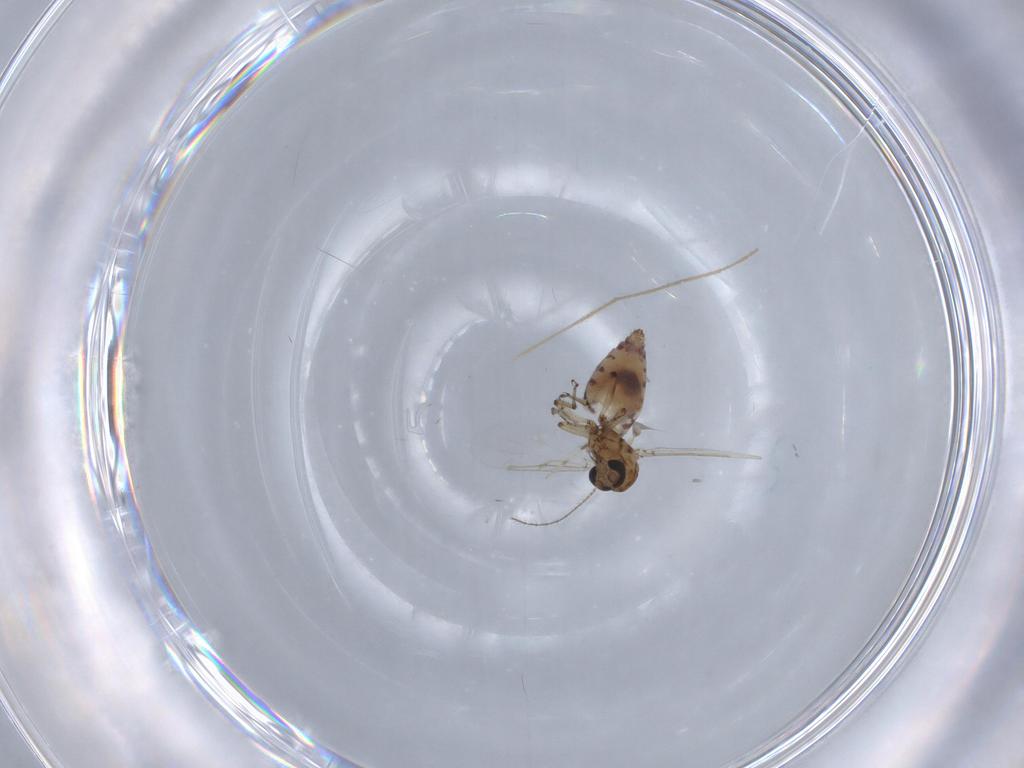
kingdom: Animalia
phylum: Arthropoda
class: Insecta
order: Diptera
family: Ceratopogonidae
